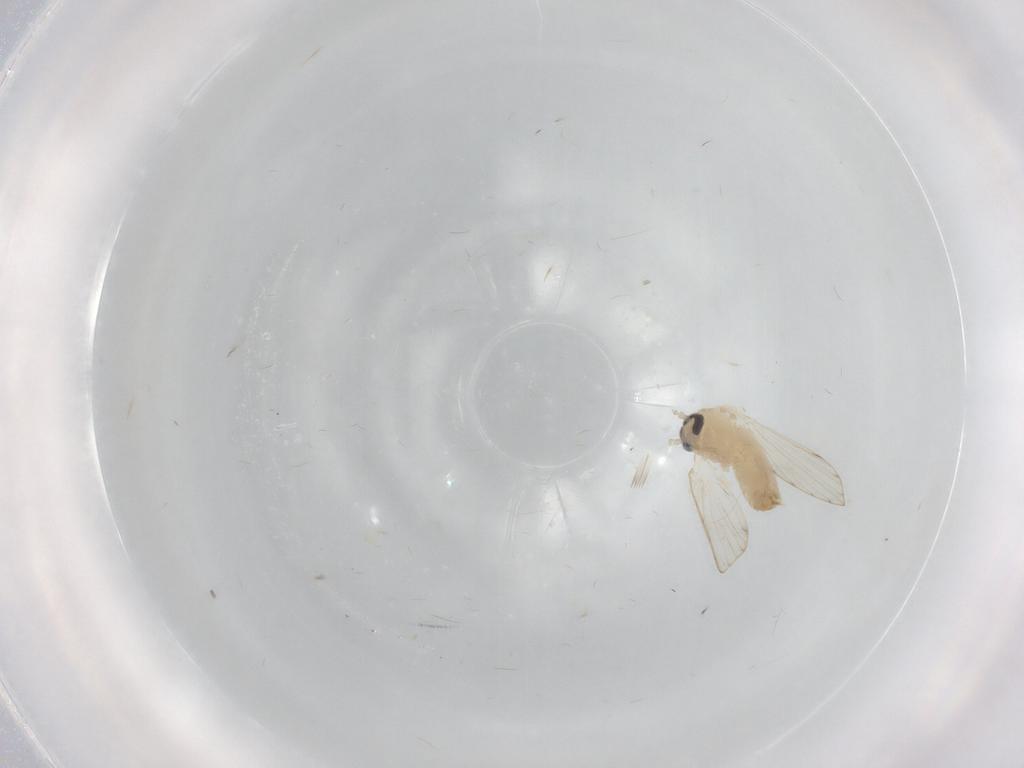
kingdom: Animalia
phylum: Arthropoda
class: Insecta
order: Diptera
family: Psychodidae
